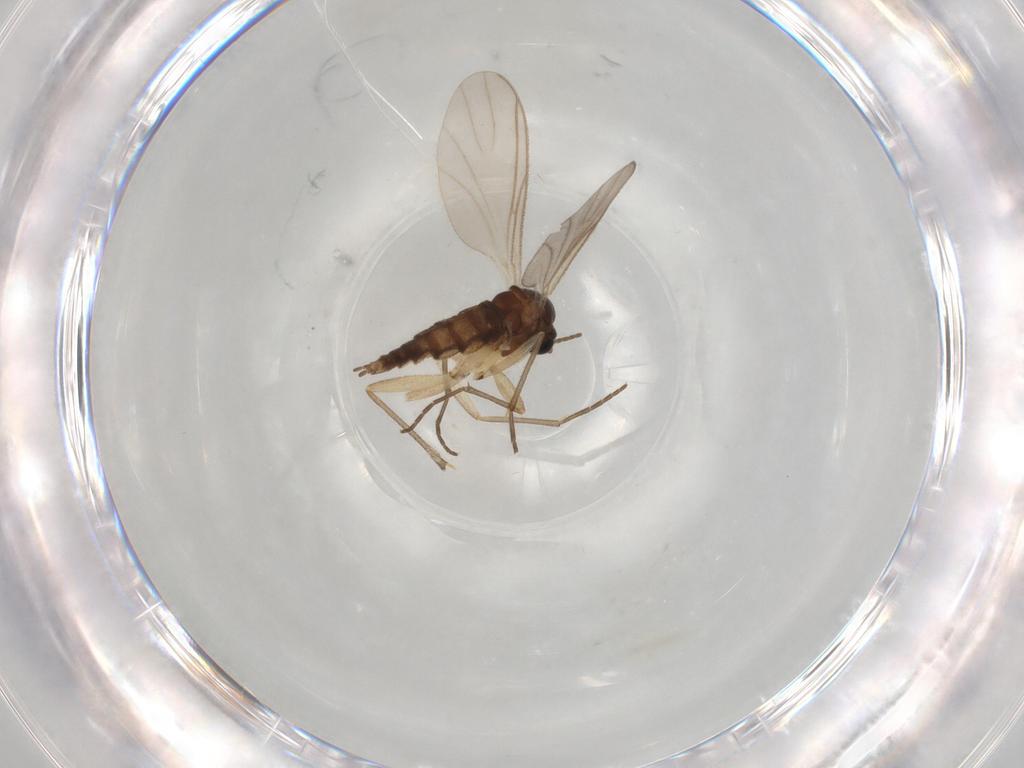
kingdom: Animalia
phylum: Arthropoda
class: Insecta
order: Diptera
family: Sciaridae
